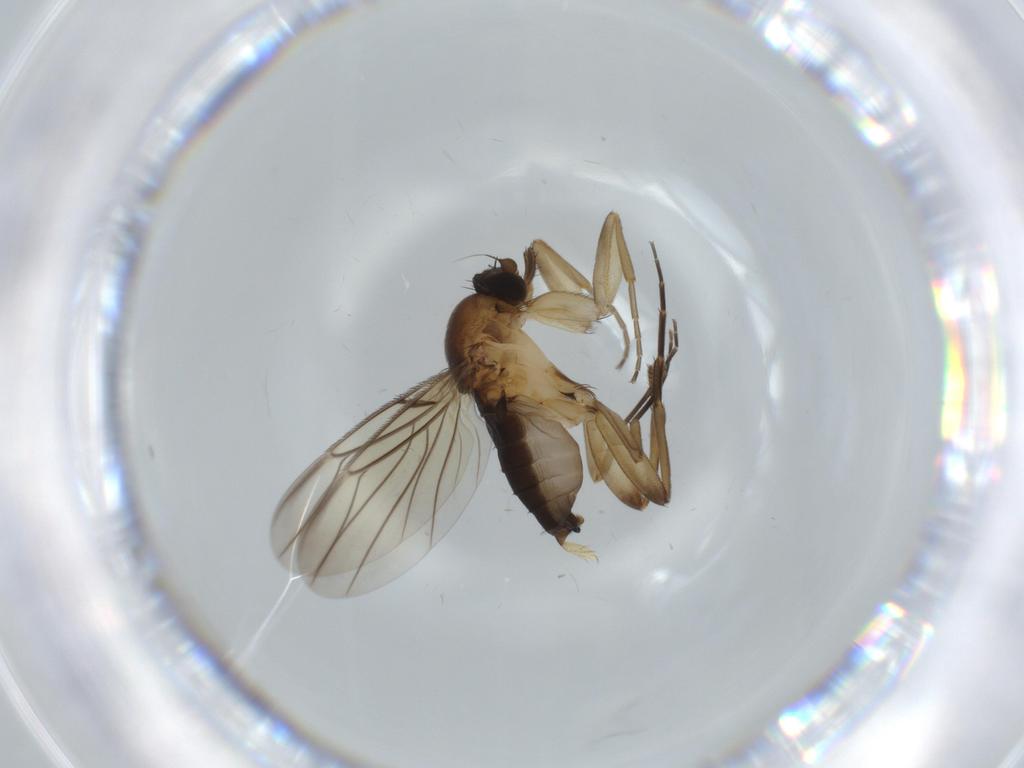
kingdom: Animalia
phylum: Arthropoda
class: Insecta
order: Diptera
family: Phoridae
